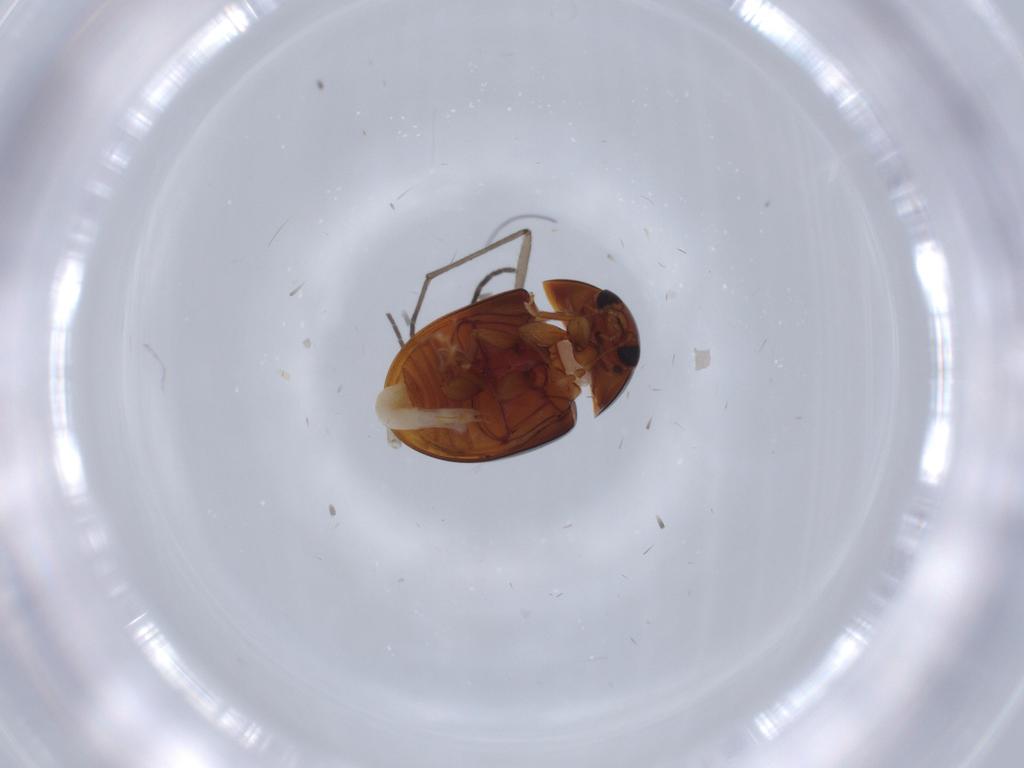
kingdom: Animalia
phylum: Arthropoda
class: Insecta
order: Coleoptera
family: Phalacridae
